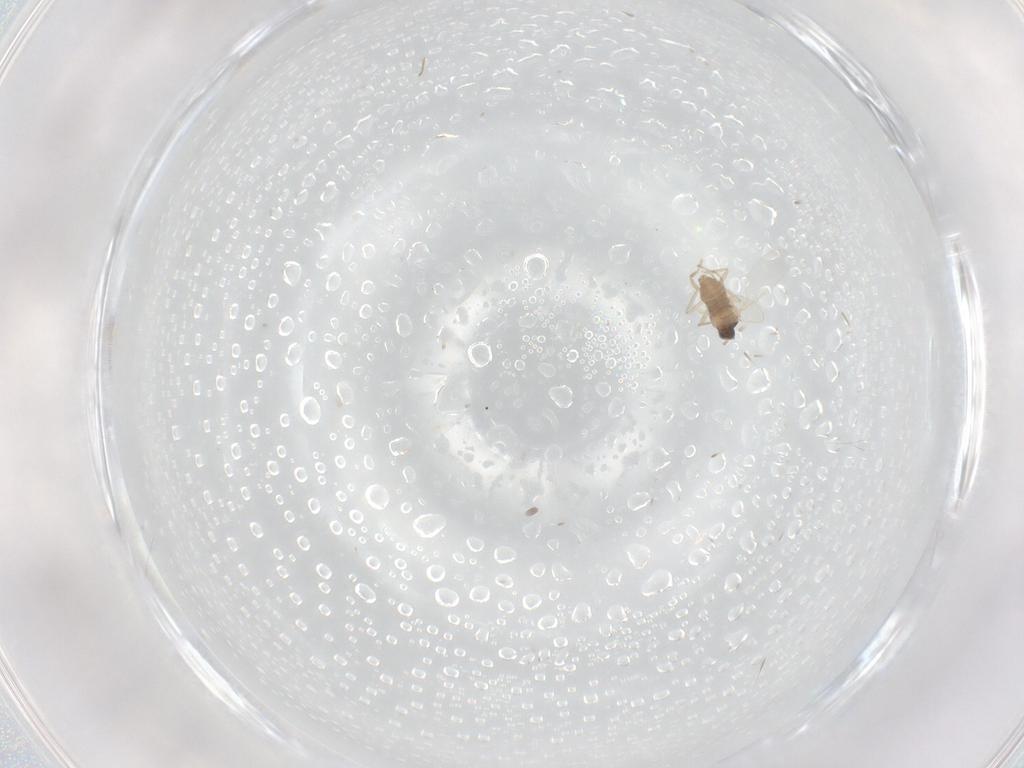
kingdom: Animalia
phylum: Arthropoda
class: Insecta
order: Diptera
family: Cecidomyiidae
